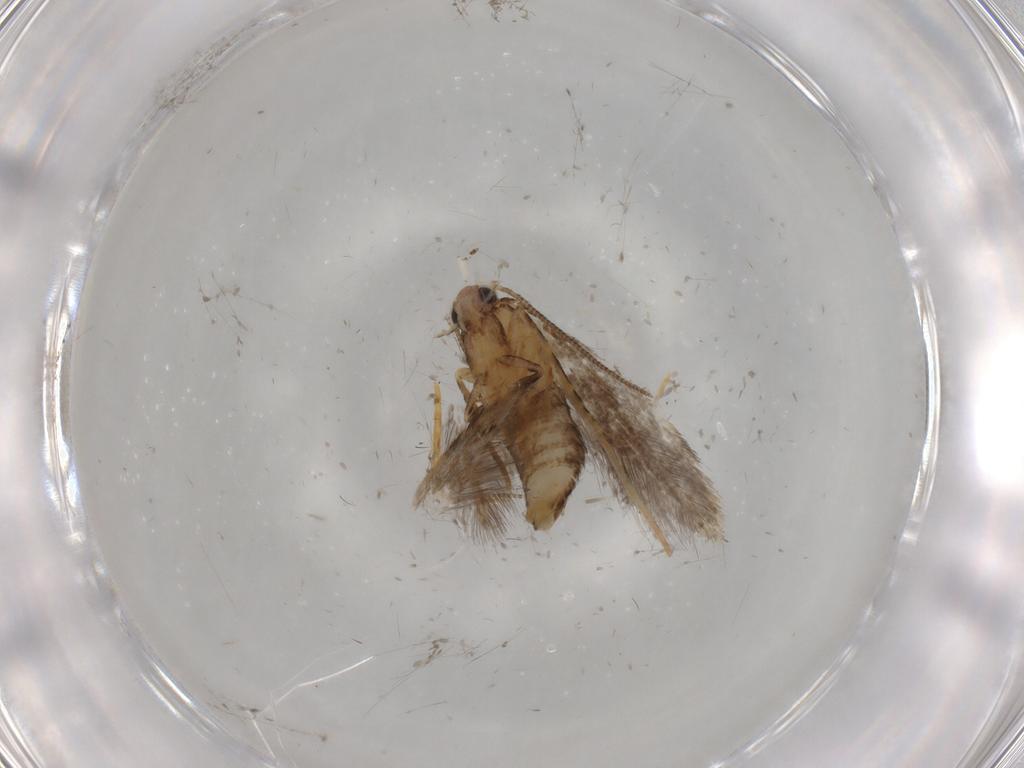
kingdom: Animalia
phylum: Arthropoda
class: Insecta
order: Lepidoptera
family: Tineidae
